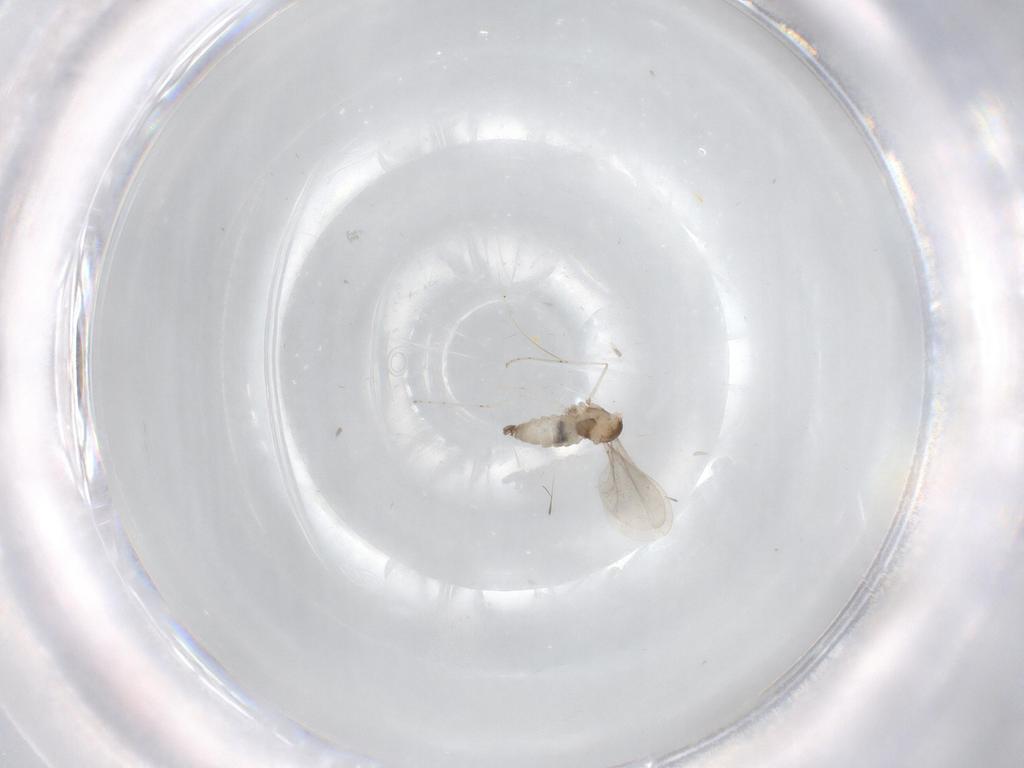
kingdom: Animalia
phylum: Arthropoda
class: Insecta
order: Diptera
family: Cecidomyiidae
